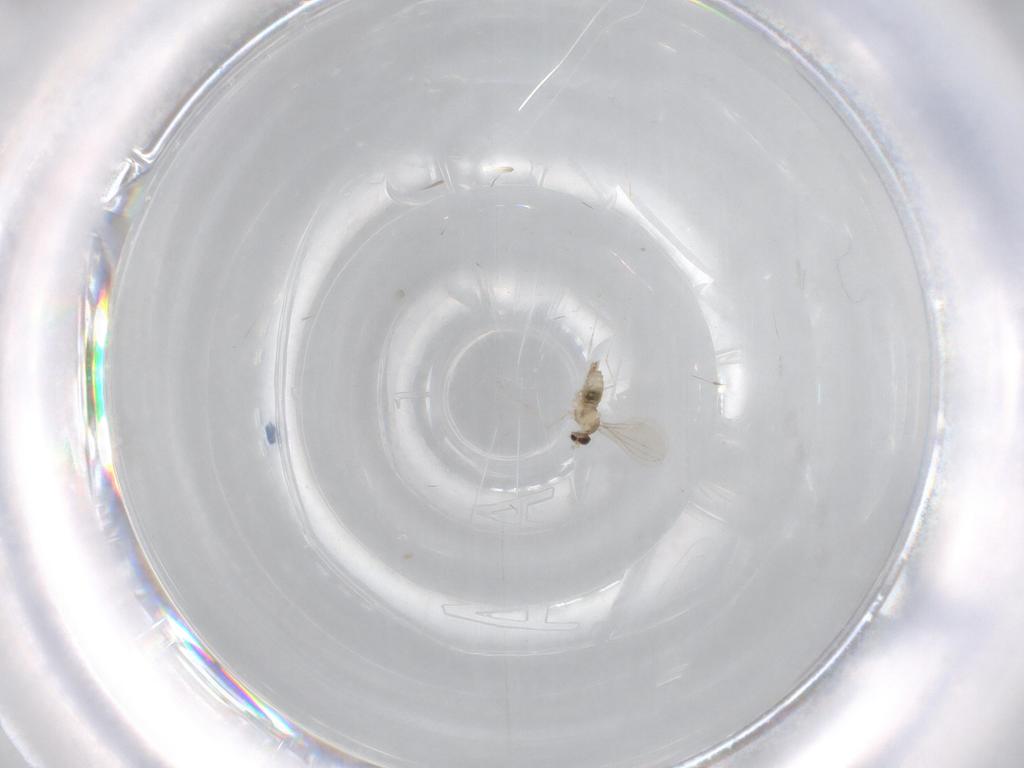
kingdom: Animalia
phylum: Arthropoda
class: Insecta
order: Diptera
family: Cecidomyiidae
